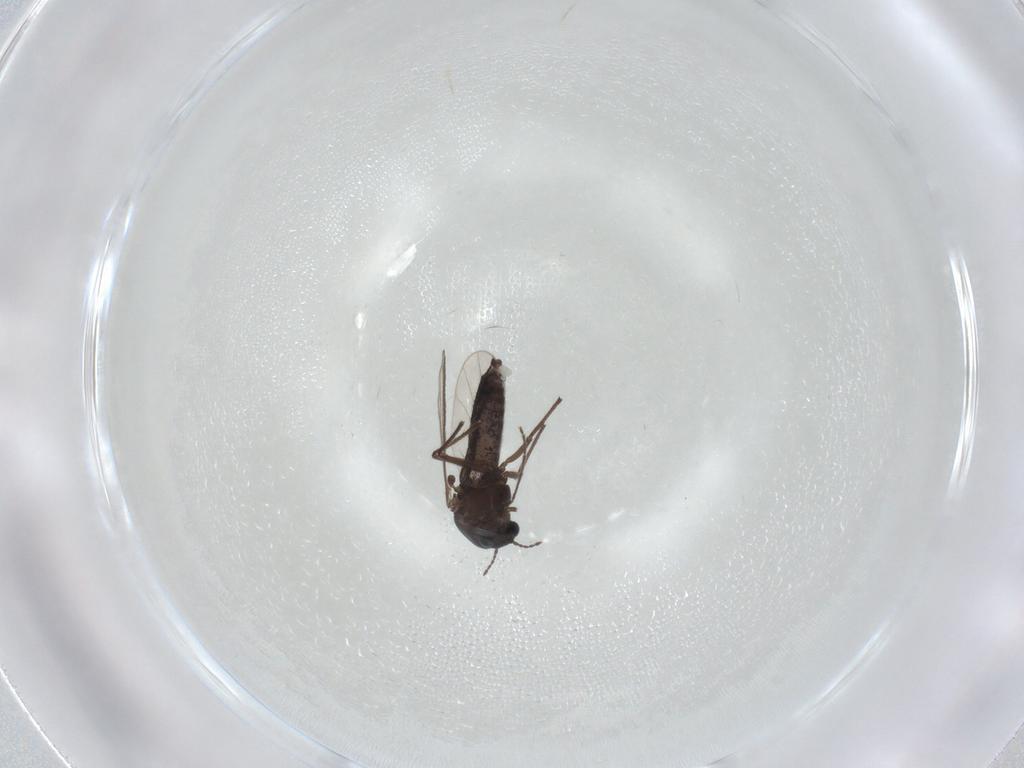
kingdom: Animalia
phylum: Arthropoda
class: Insecta
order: Diptera
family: Chironomidae
